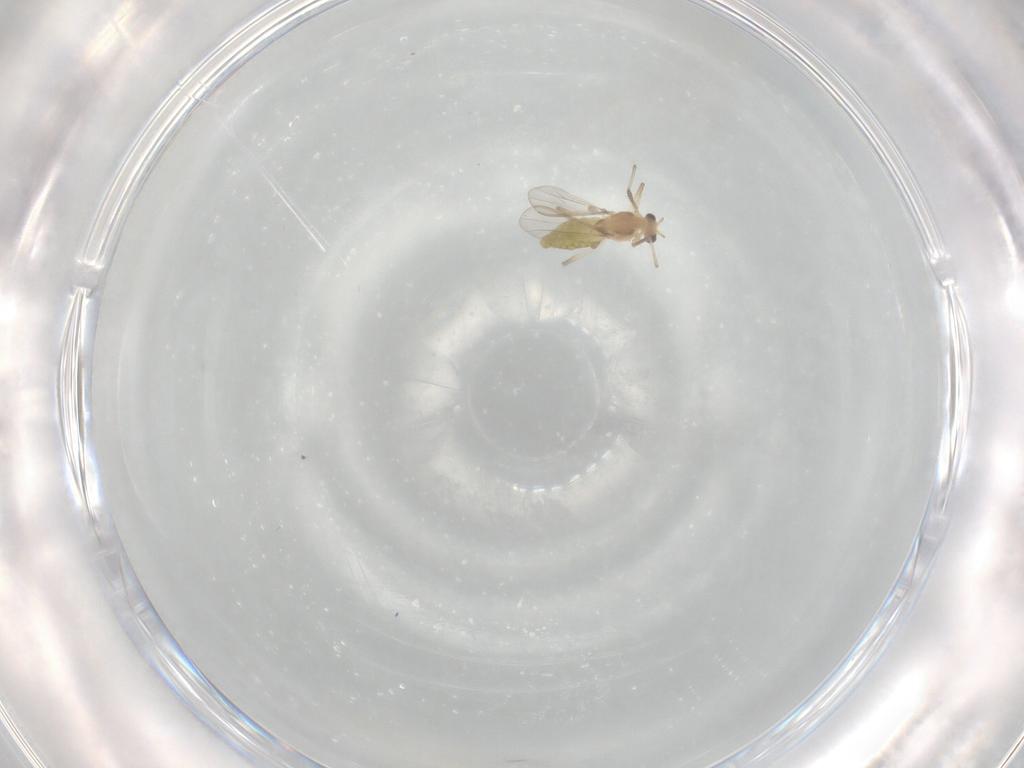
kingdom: Animalia
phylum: Arthropoda
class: Insecta
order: Diptera
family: Chironomidae
